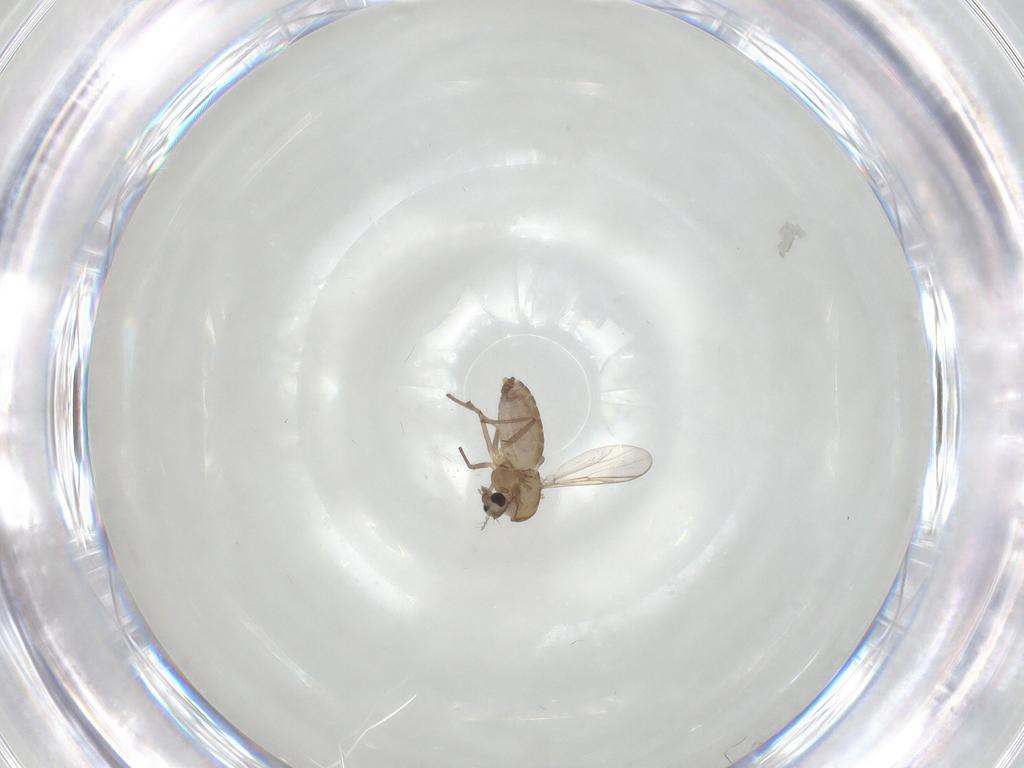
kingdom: Animalia
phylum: Arthropoda
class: Insecta
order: Diptera
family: Chironomidae
